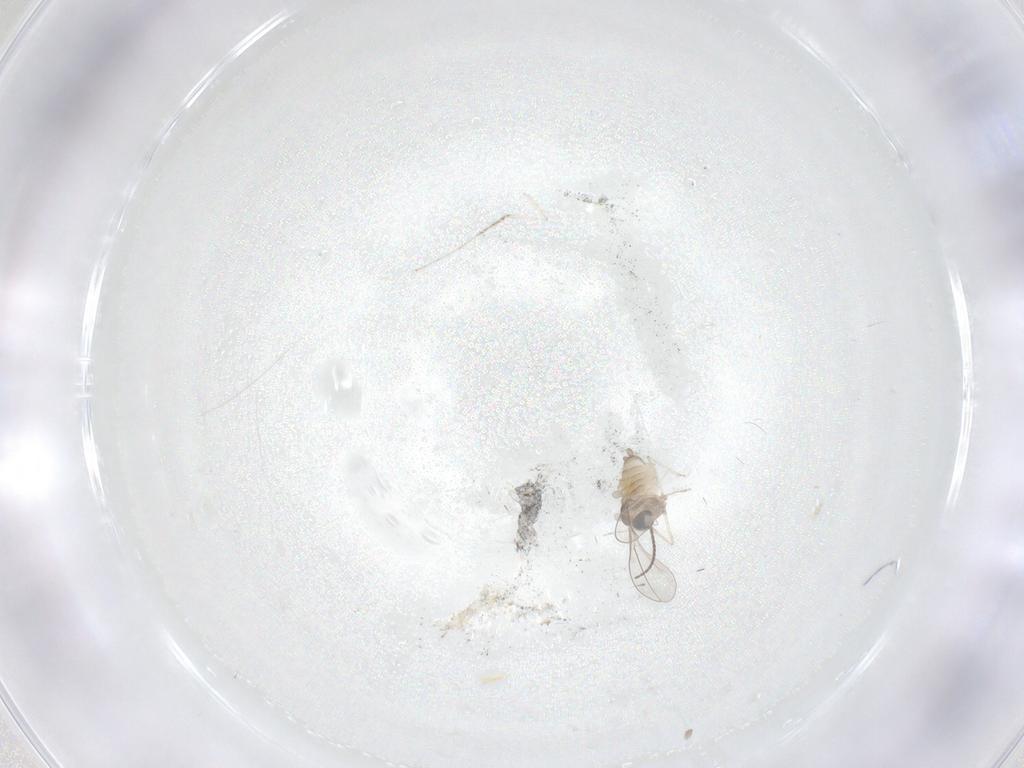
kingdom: Animalia
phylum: Arthropoda
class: Insecta
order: Diptera
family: Cecidomyiidae
